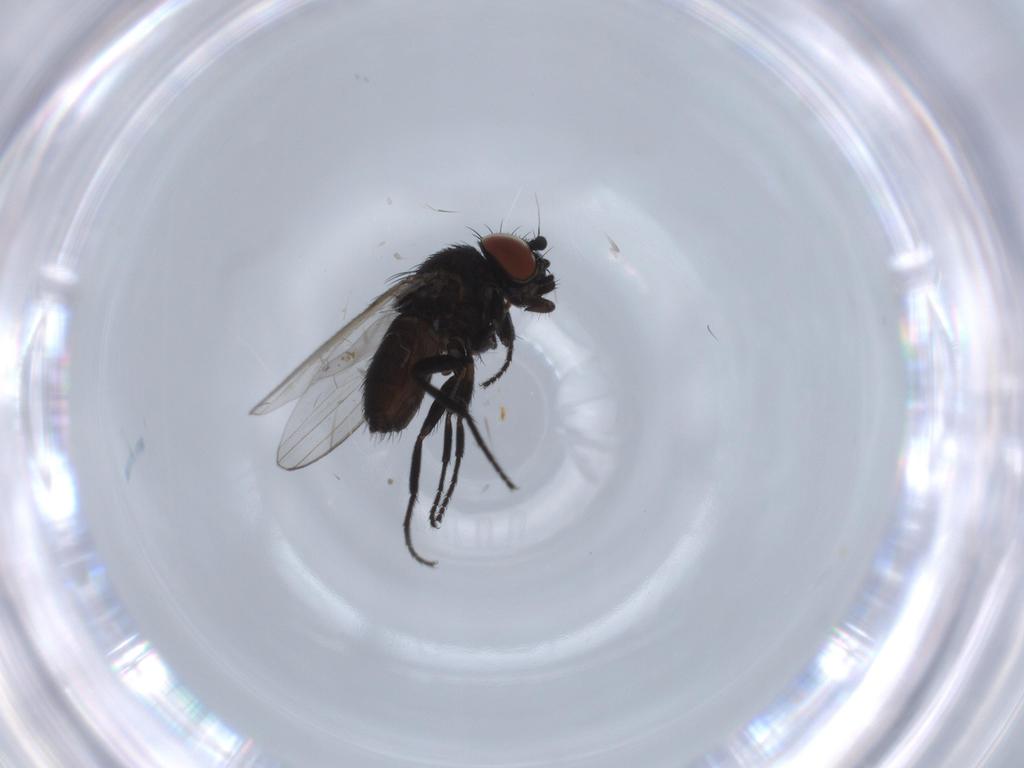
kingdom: Animalia
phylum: Arthropoda
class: Insecta
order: Diptera
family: Milichiidae
